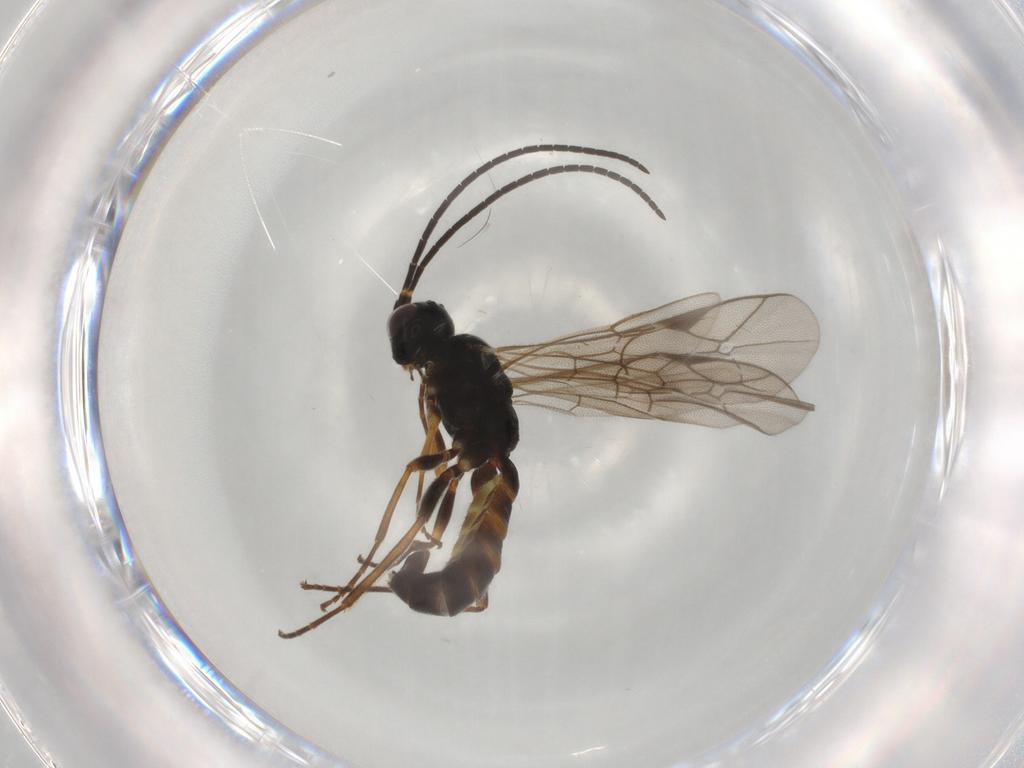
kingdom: Animalia
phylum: Arthropoda
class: Insecta
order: Hymenoptera
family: Ichneumonidae
